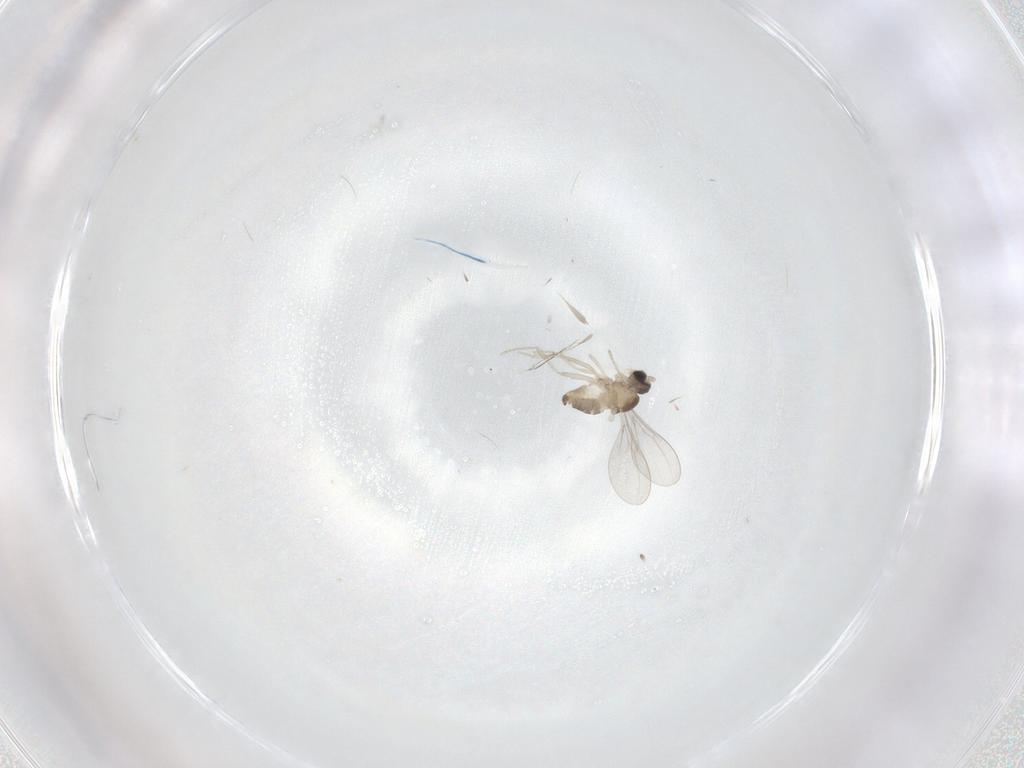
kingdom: Animalia
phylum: Arthropoda
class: Insecta
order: Diptera
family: Cecidomyiidae
